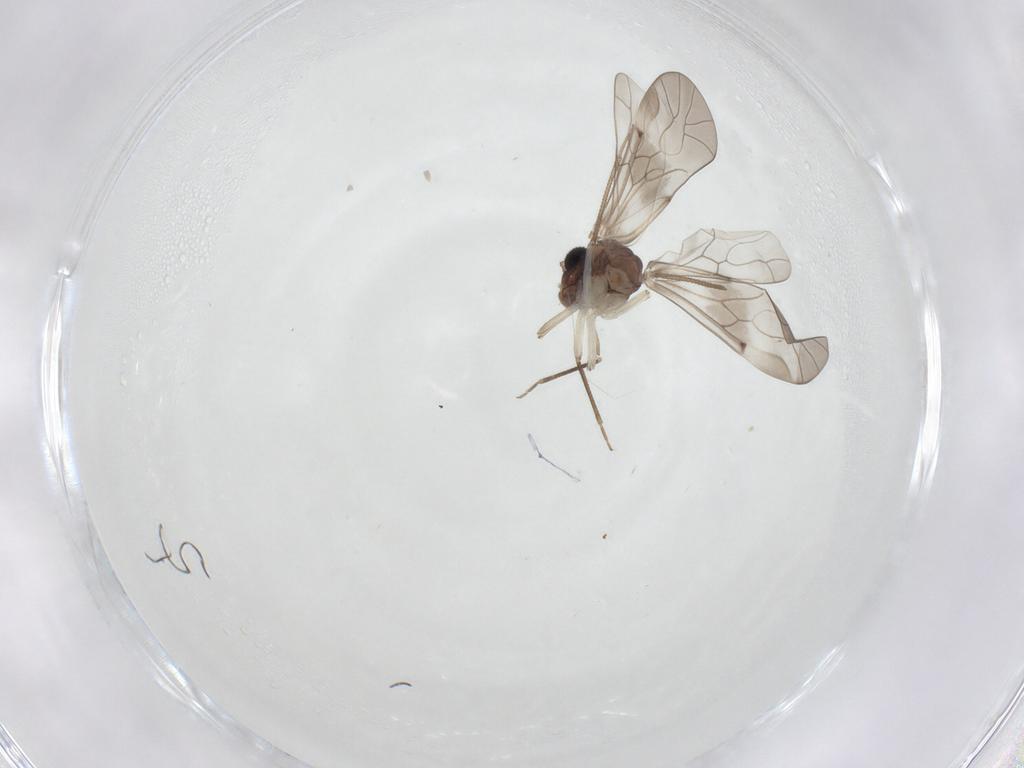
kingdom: Animalia
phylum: Arthropoda
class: Insecta
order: Psocodea
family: Peripsocidae
